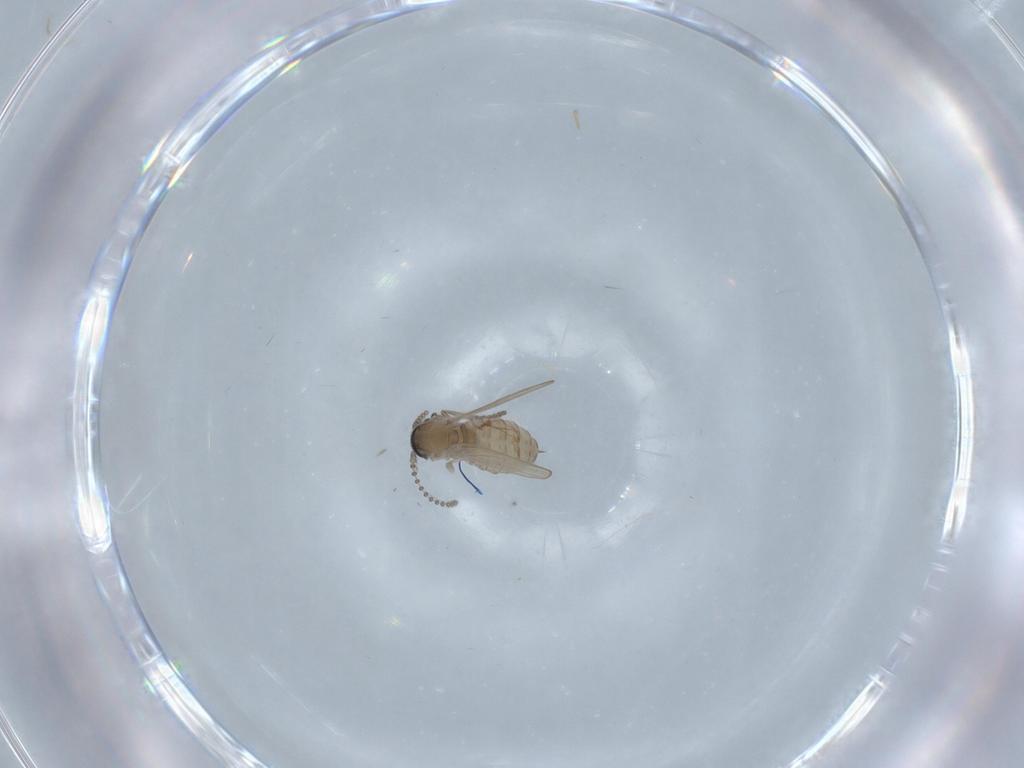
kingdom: Animalia
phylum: Arthropoda
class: Insecta
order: Diptera
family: Dolichopodidae
